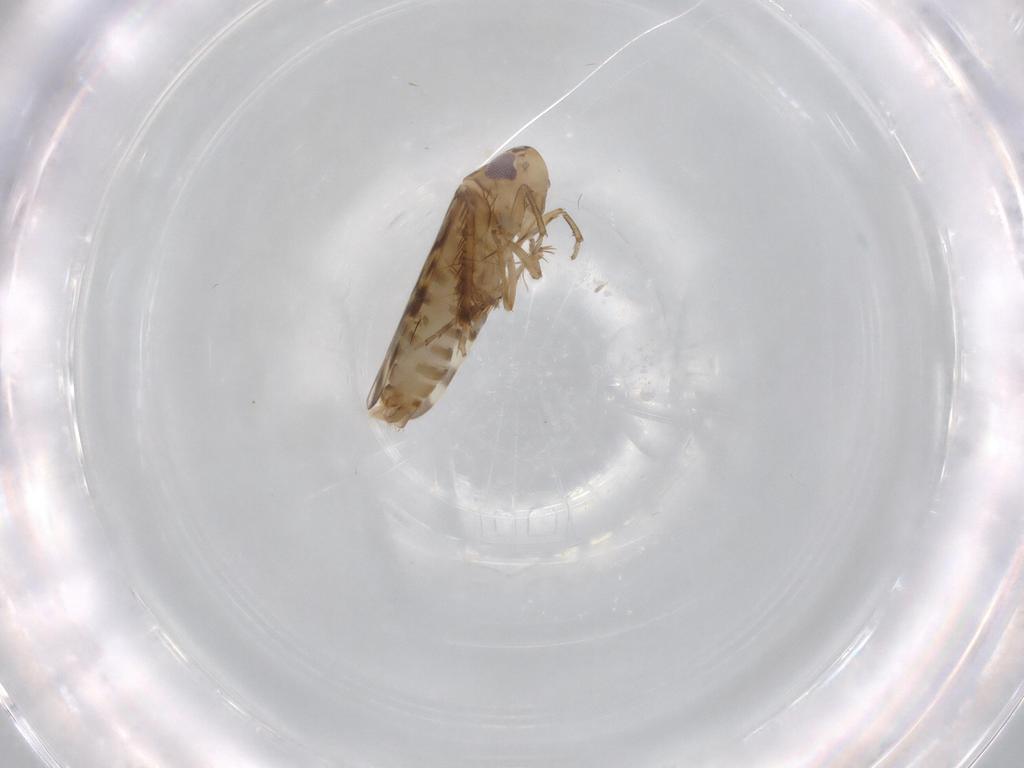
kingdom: Animalia
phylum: Arthropoda
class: Insecta
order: Hemiptera
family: Cicadellidae
